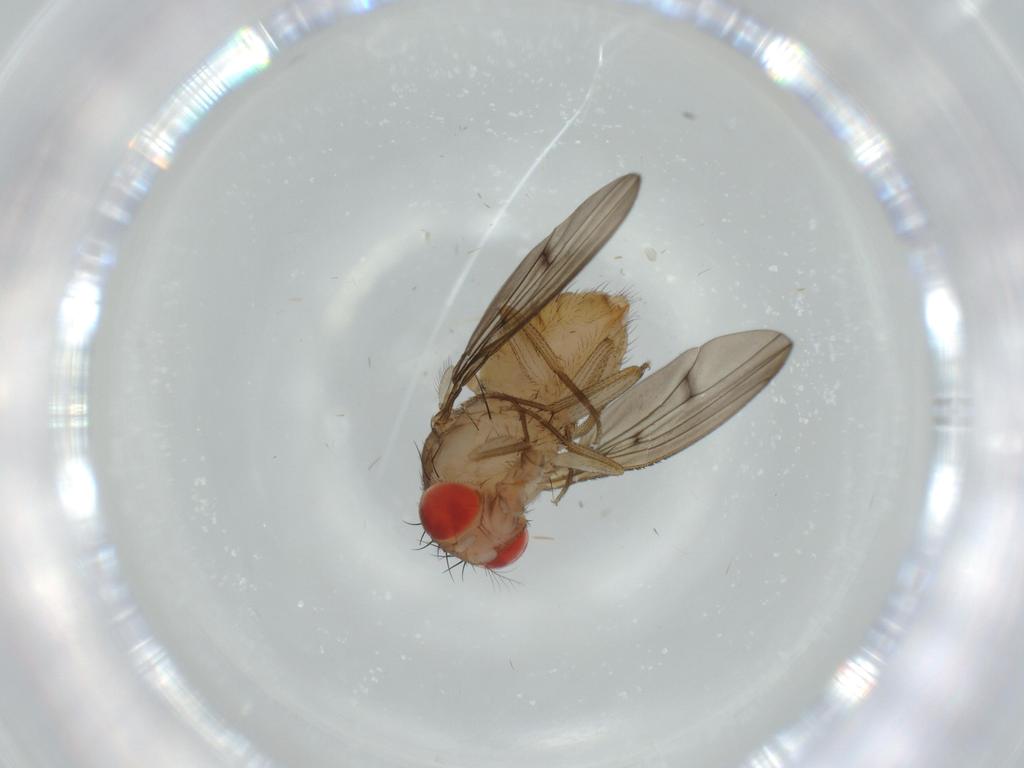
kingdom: Animalia
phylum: Arthropoda
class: Insecta
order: Diptera
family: Drosophilidae
